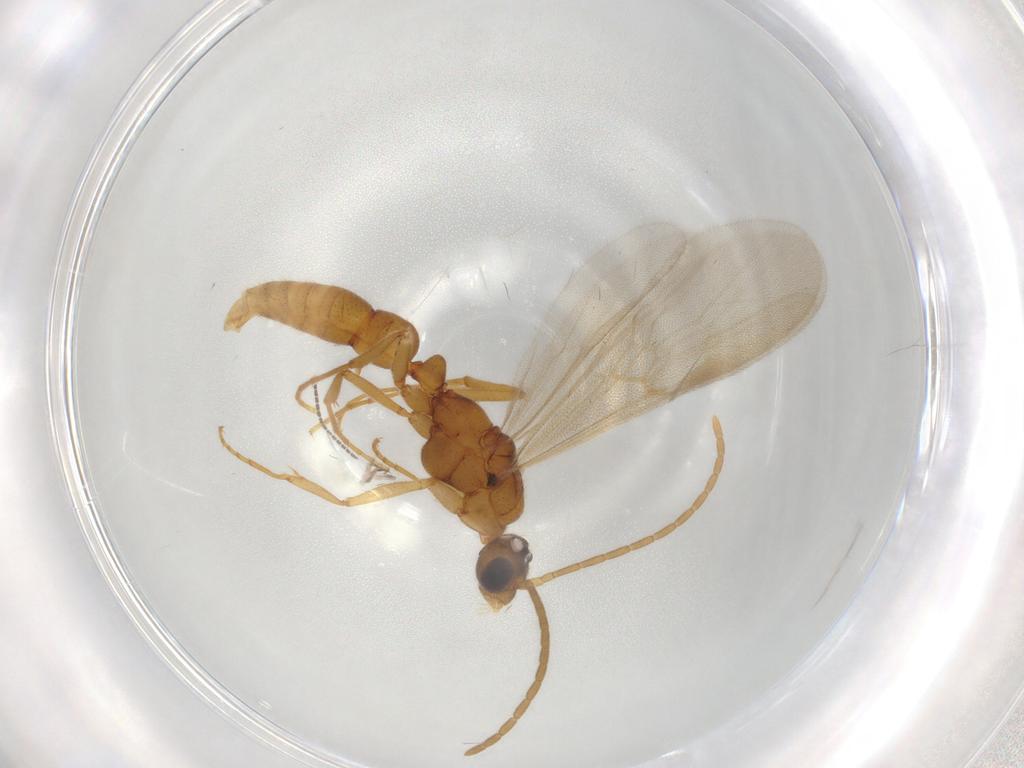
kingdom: Animalia
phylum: Arthropoda
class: Insecta
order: Hymenoptera
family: Formicidae
